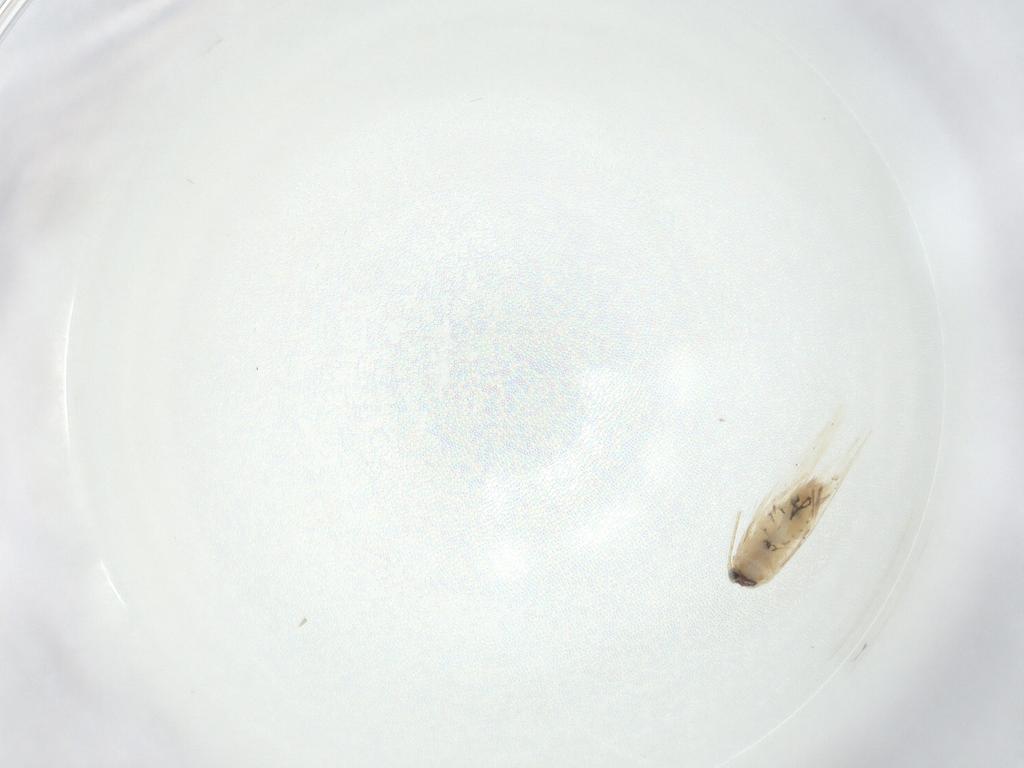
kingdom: Animalia
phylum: Arthropoda
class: Insecta
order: Lepidoptera
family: Nepticulidae
